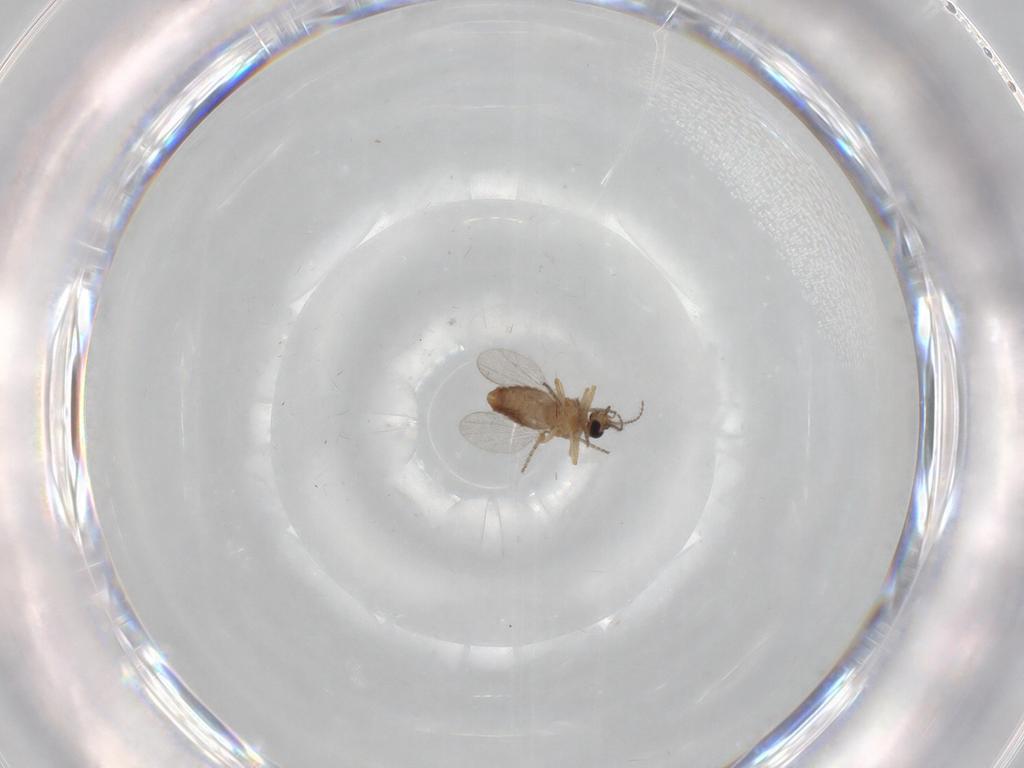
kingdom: Animalia
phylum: Arthropoda
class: Insecta
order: Diptera
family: Cecidomyiidae
